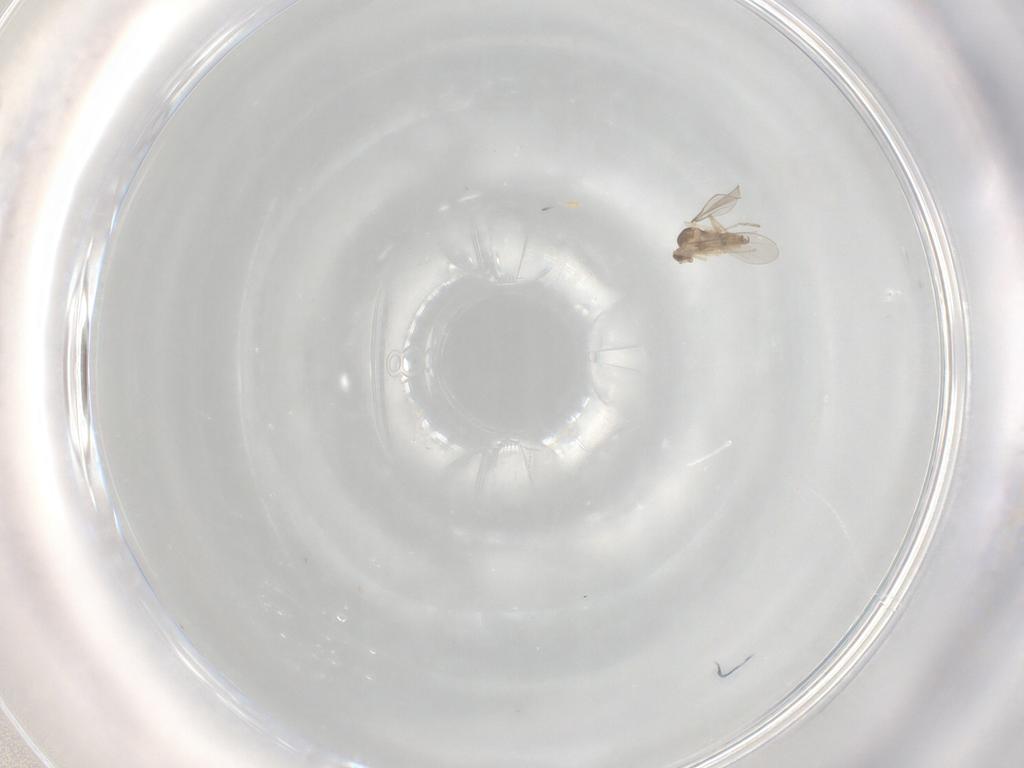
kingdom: Animalia
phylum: Arthropoda
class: Insecta
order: Diptera
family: Cecidomyiidae
